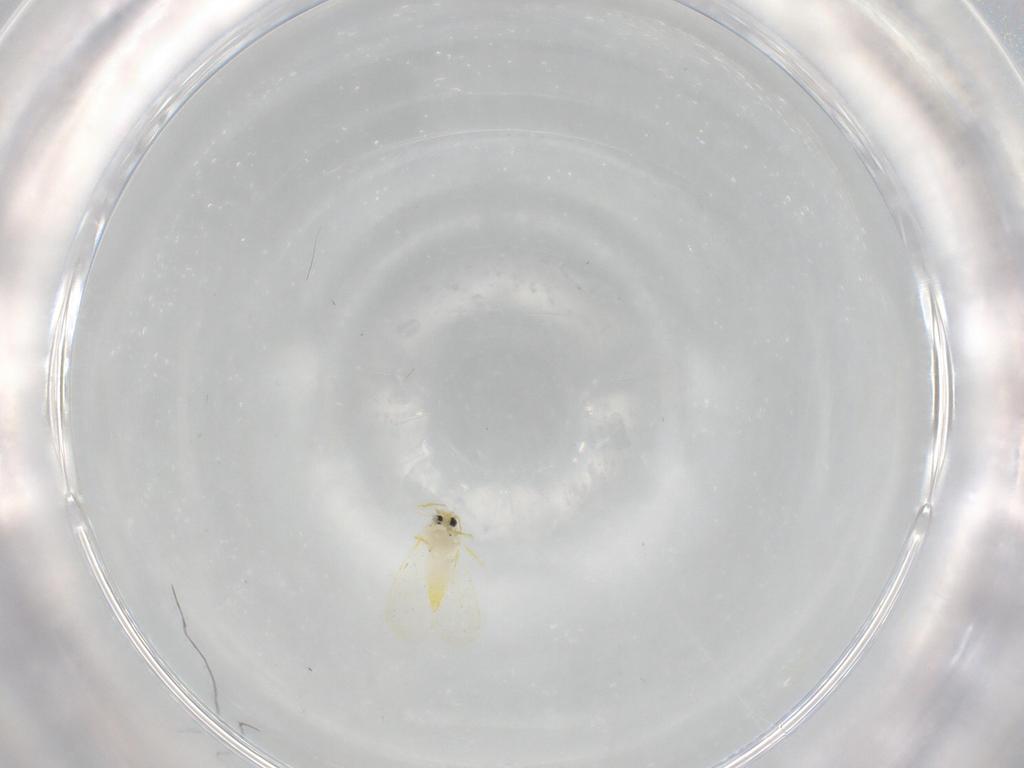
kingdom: Animalia
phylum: Arthropoda
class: Insecta
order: Hemiptera
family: Aleyrodidae
